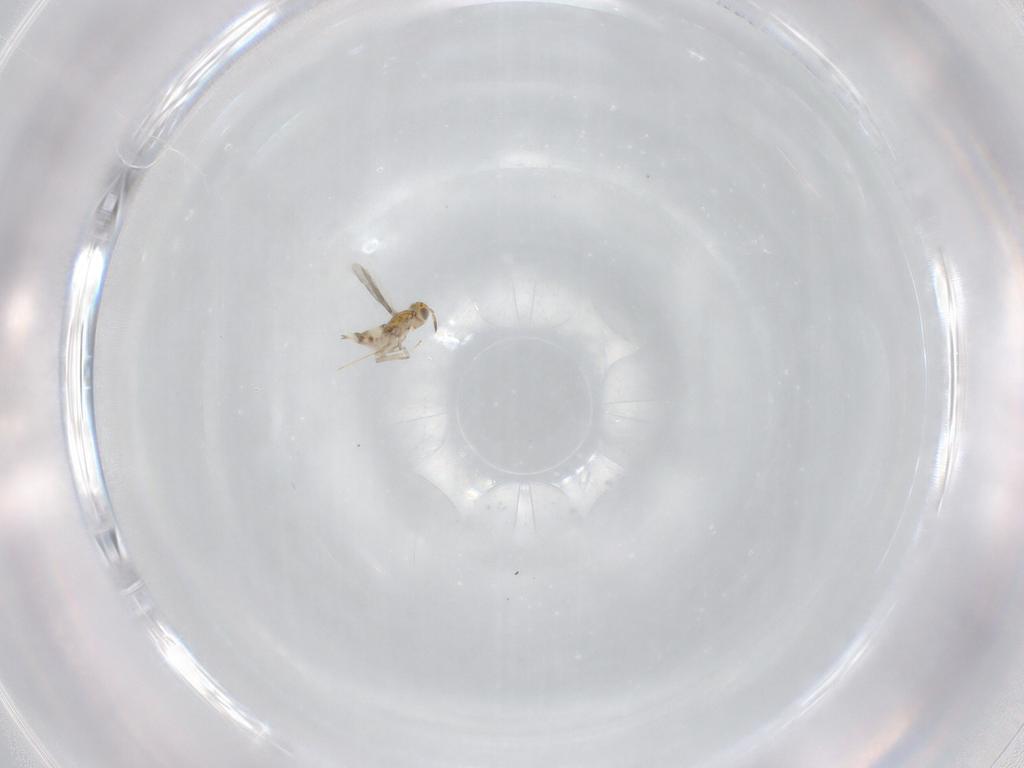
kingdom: Animalia
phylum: Arthropoda
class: Insecta
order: Hymenoptera
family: Aphelinidae
